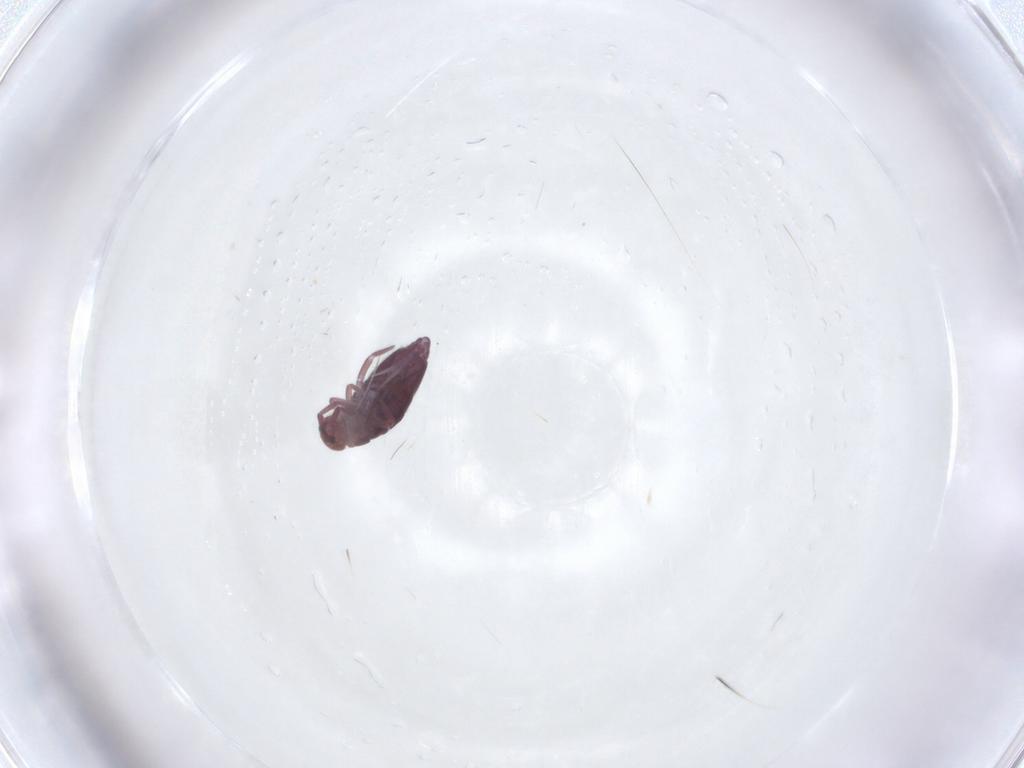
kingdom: Animalia
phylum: Arthropoda
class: Collembola
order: Entomobryomorpha
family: Entomobryidae
